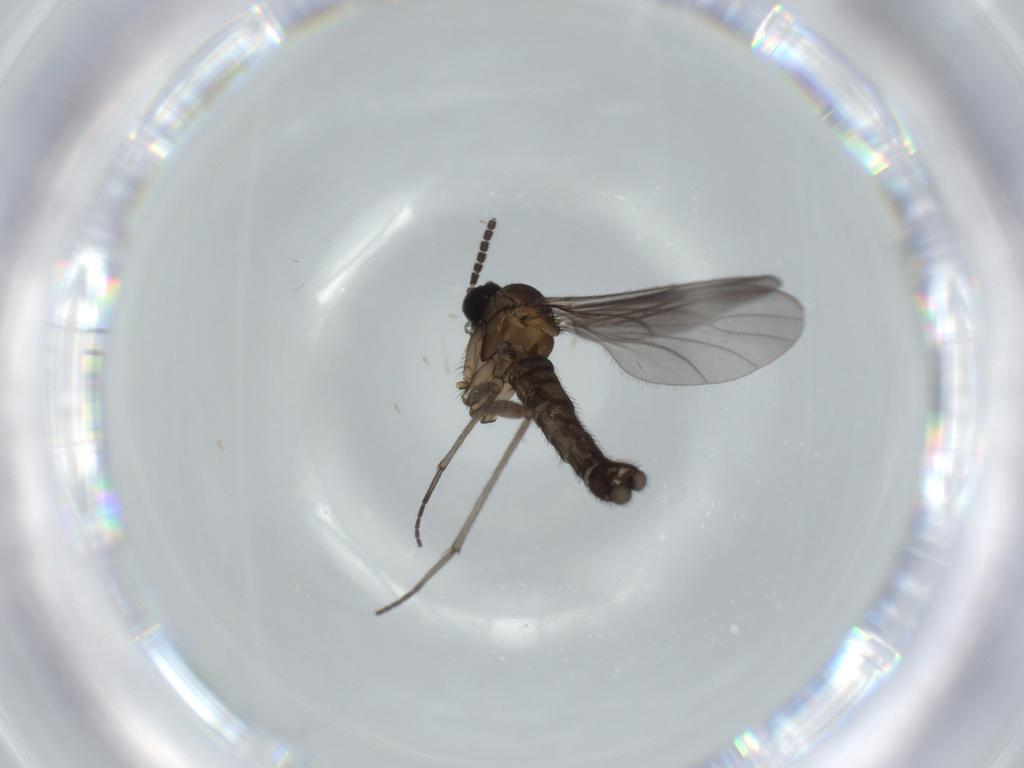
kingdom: Animalia
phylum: Arthropoda
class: Insecta
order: Diptera
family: Sciaridae
